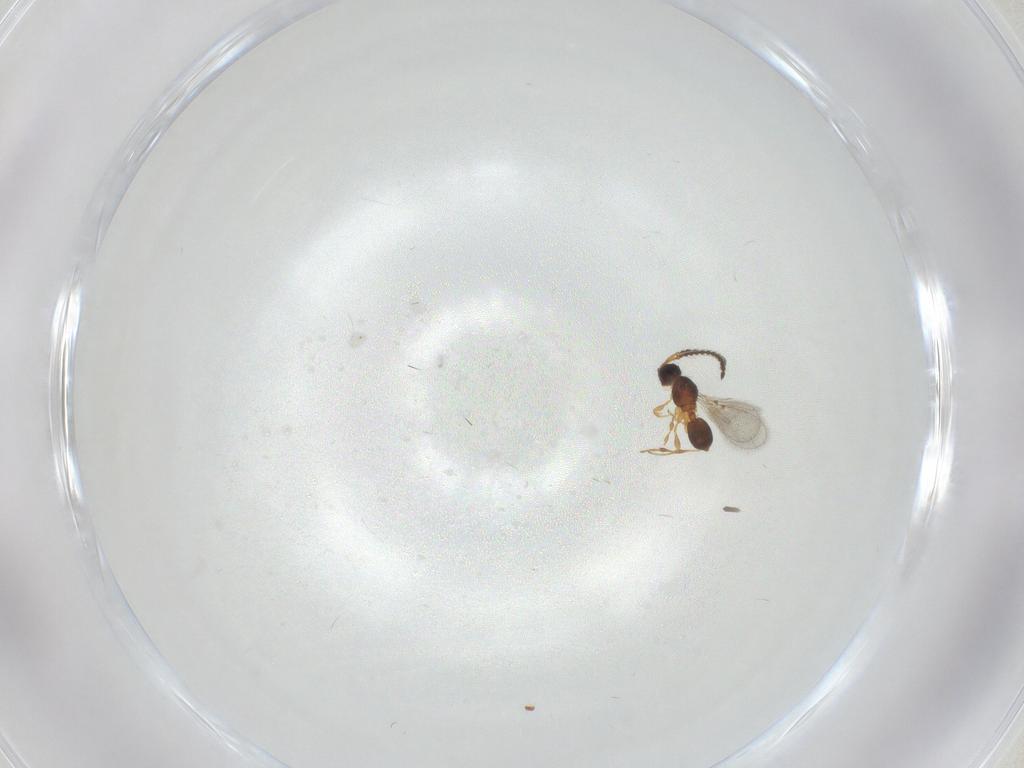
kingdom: Animalia
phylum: Arthropoda
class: Insecta
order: Hymenoptera
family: Diapriidae
